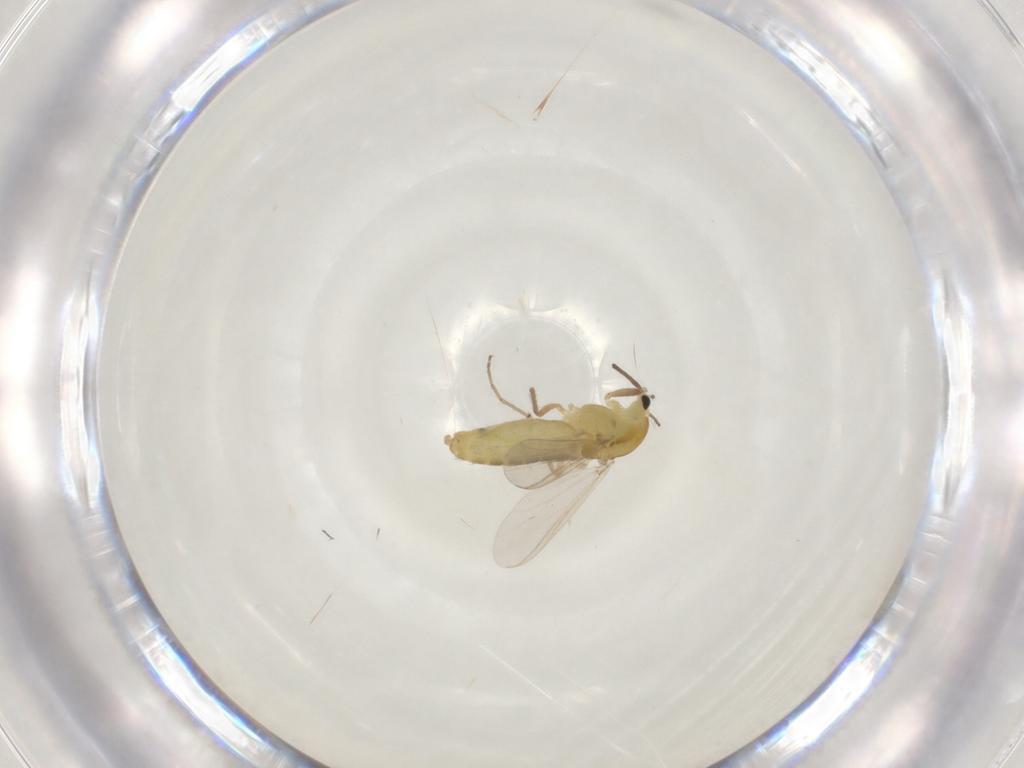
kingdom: Animalia
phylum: Arthropoda
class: Insecta
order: Diptera
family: Chironomidae
